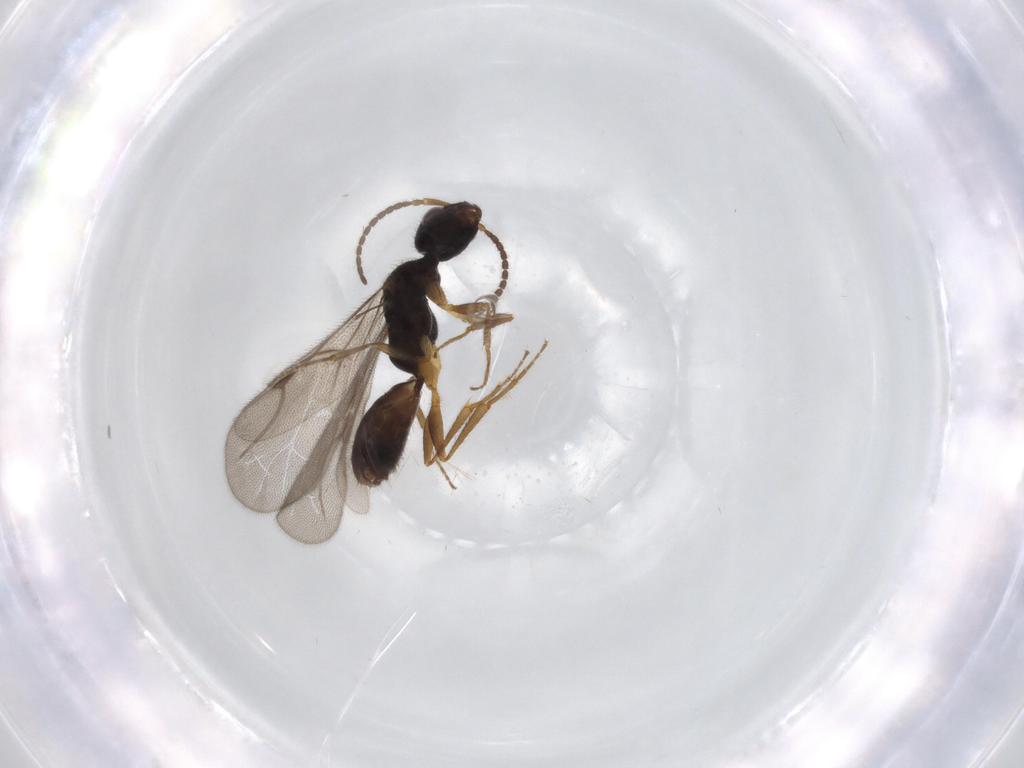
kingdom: Animalia
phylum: Arthropoda
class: Insecta
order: Hymenoptera
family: Bethylidae
